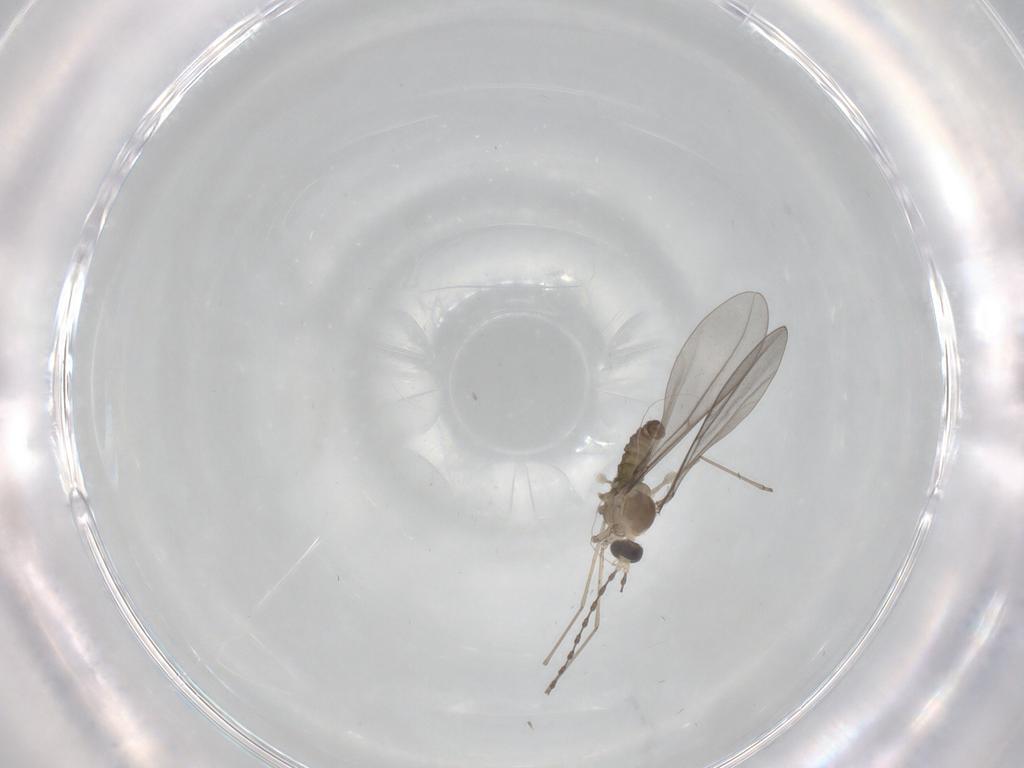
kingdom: Animalia
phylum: Arthropoda
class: Insecta
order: Diptera
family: Cecidomyiidae
